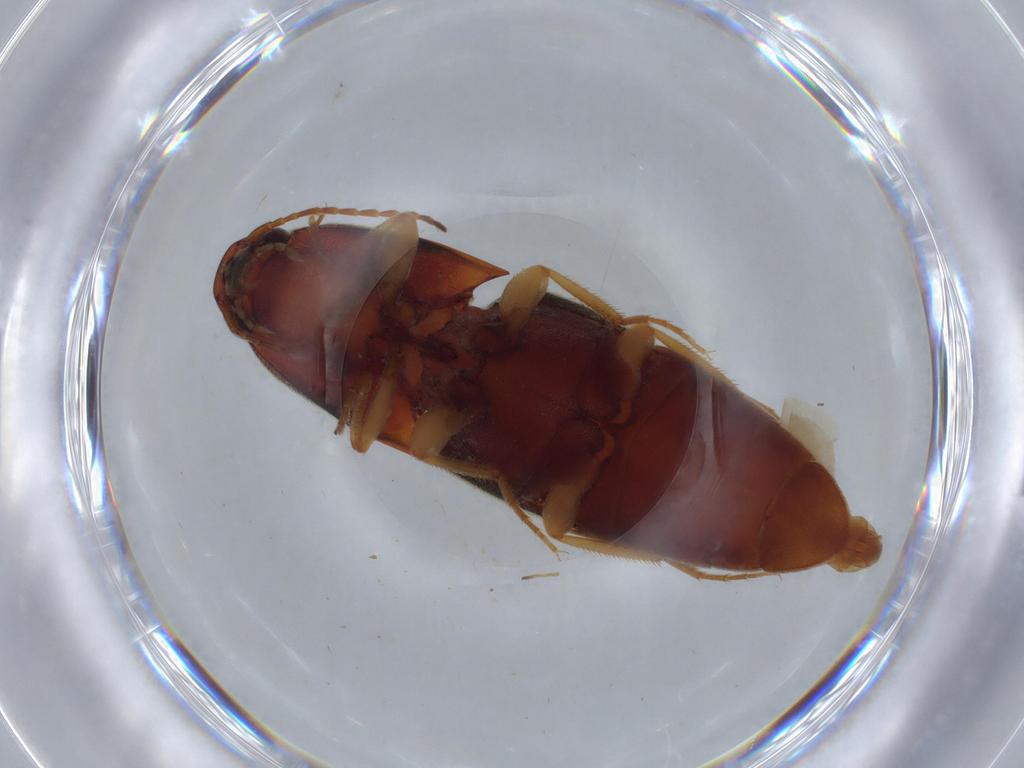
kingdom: Animalia
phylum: Arthropoda
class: Insecta
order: Coleoptera
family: Elateridae
